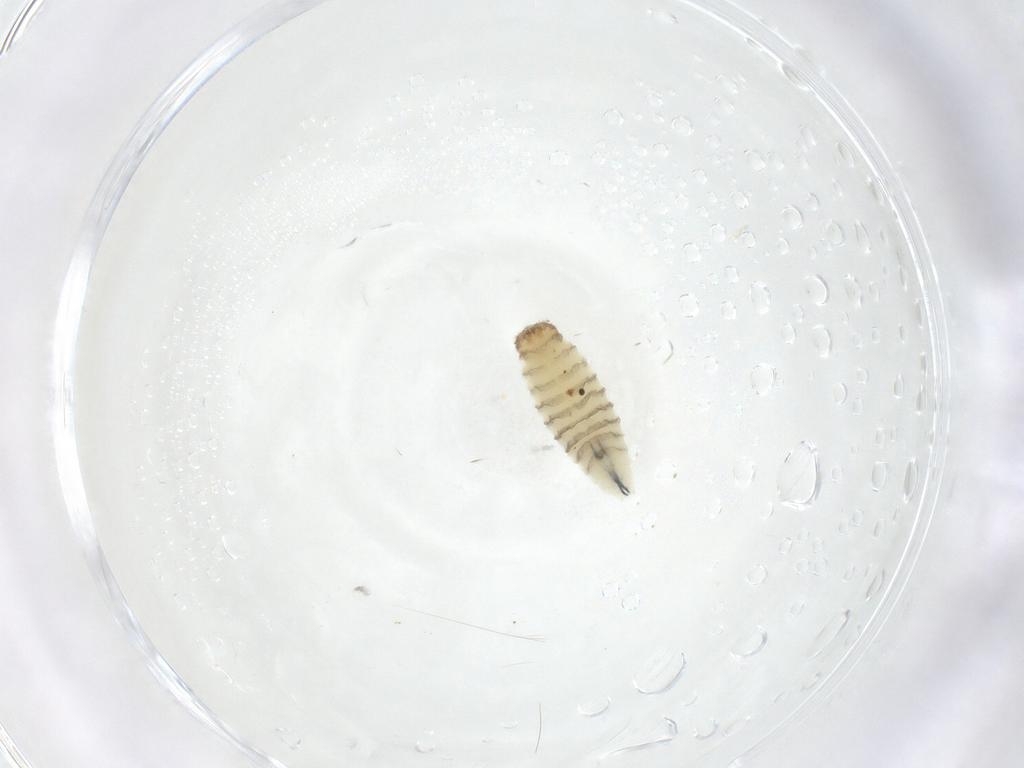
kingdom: Animalia
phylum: Arthropoda
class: Insecta
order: Diptera
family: Sarcophagidae
